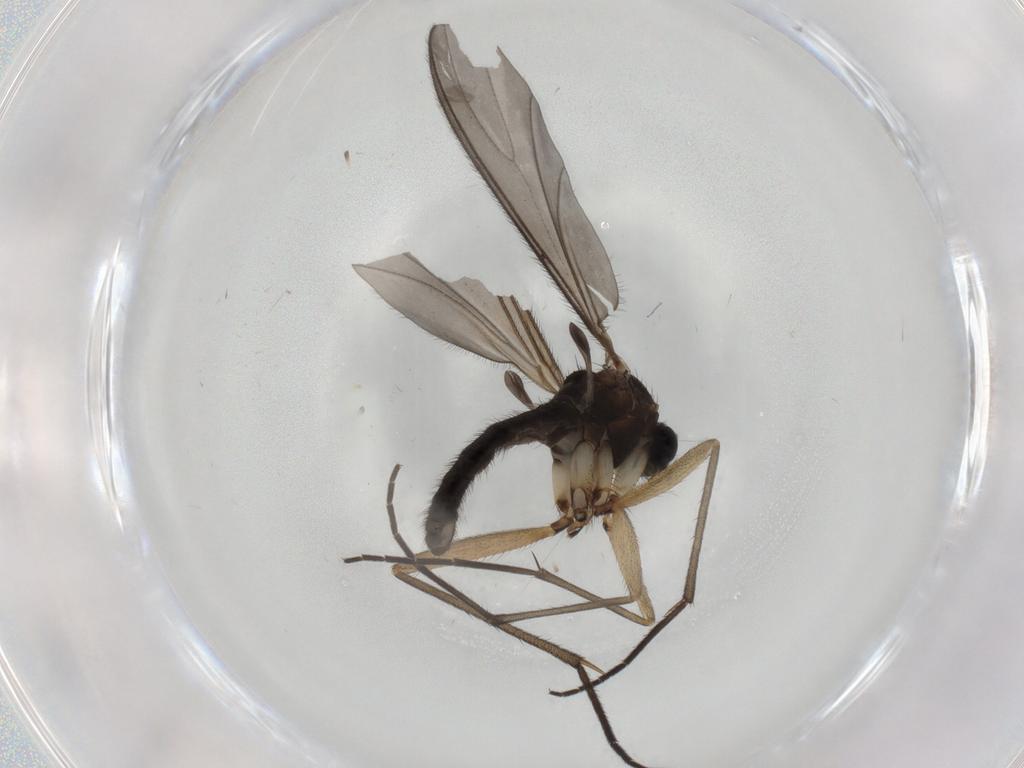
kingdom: Animalia
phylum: Arthropoda
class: Insecta
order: Diptera
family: Sciaridae
